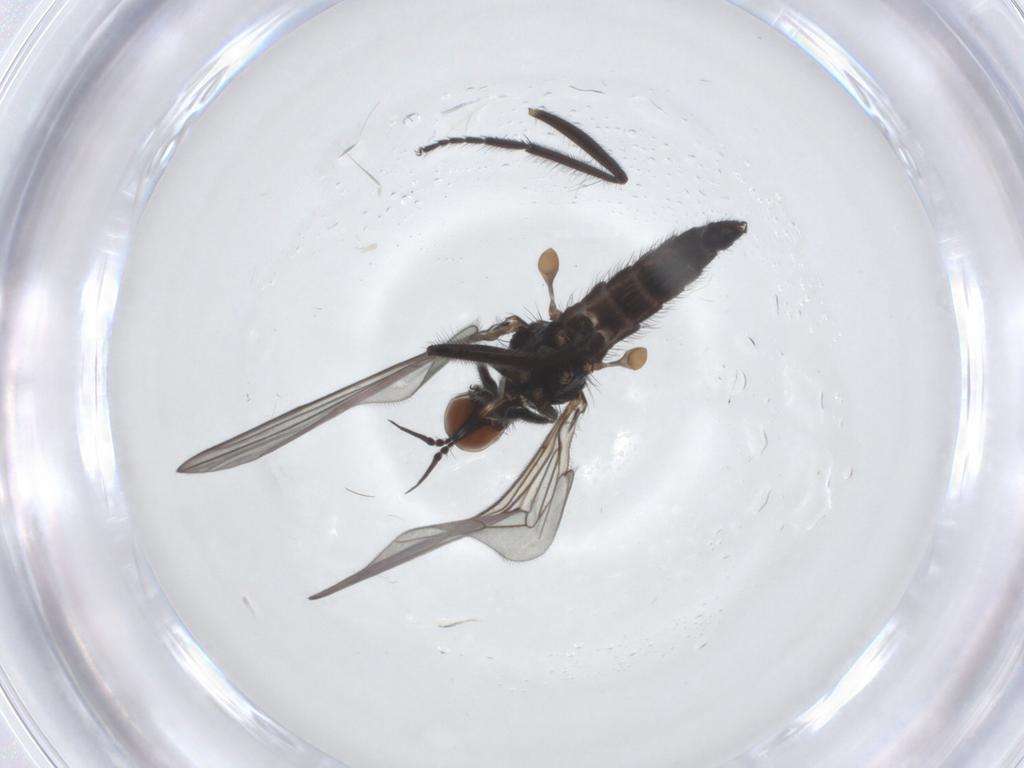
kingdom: Animalia
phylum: Arthropoda
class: Insecta
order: Diptera
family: Empididae
